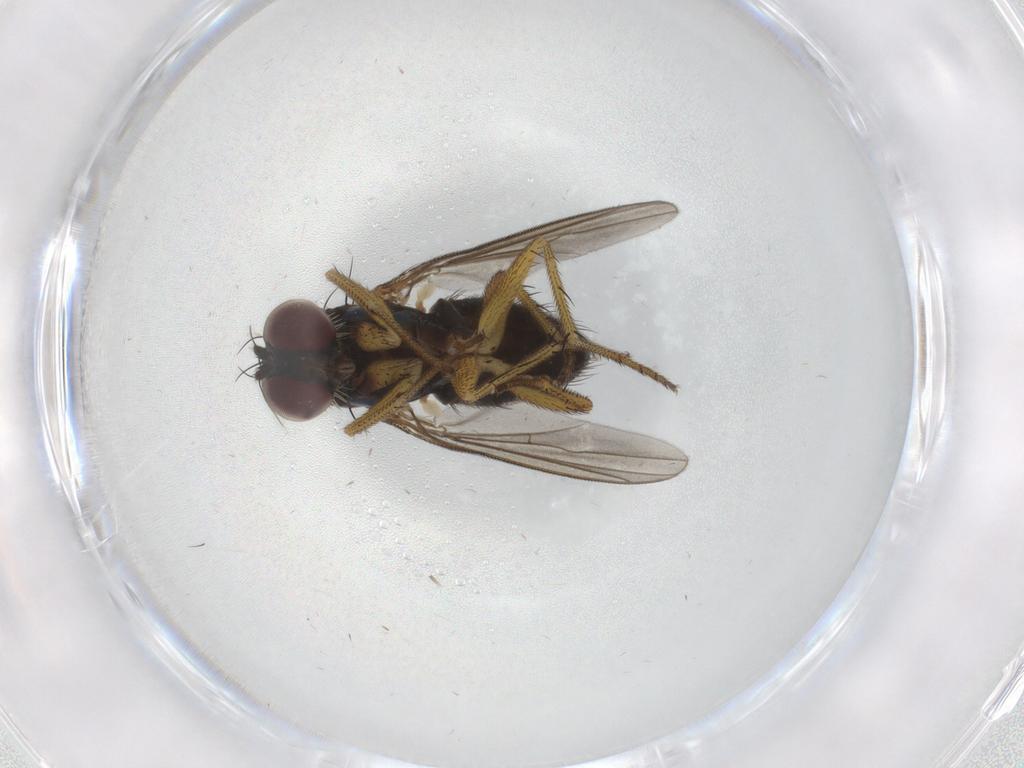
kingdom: Animalia
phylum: Arthropoda
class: Insecta
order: Diptera
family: Dolichopodidae
